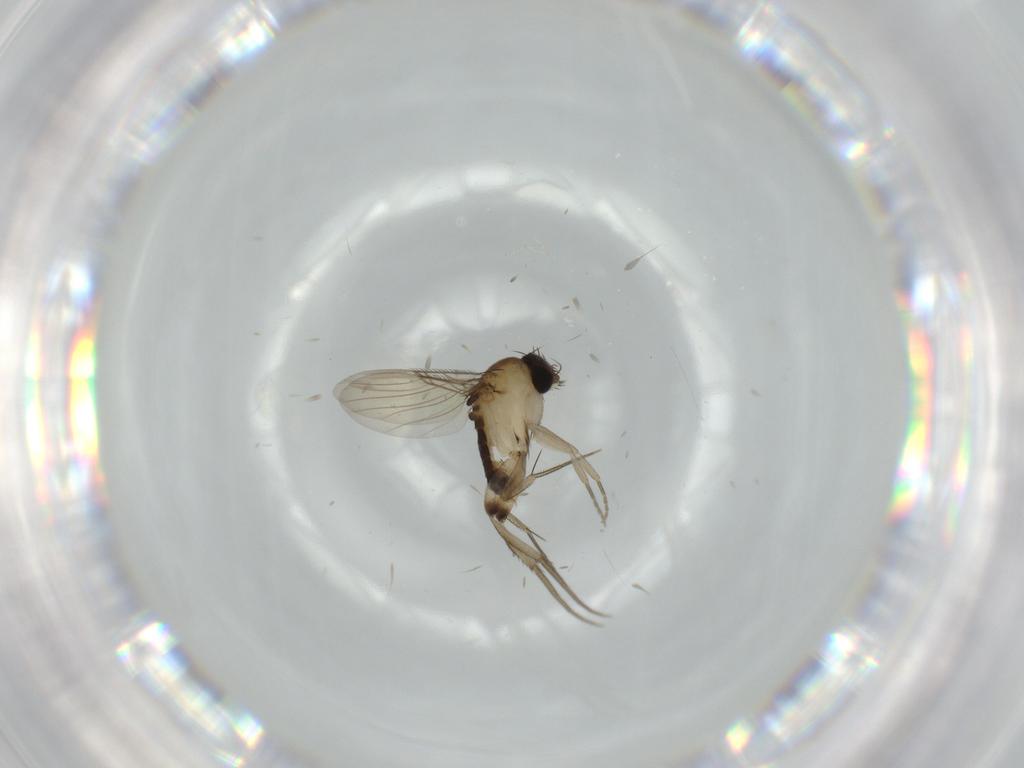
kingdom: Animalia
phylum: Arthropoda
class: Insecta
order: Diptera
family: Phoridae
